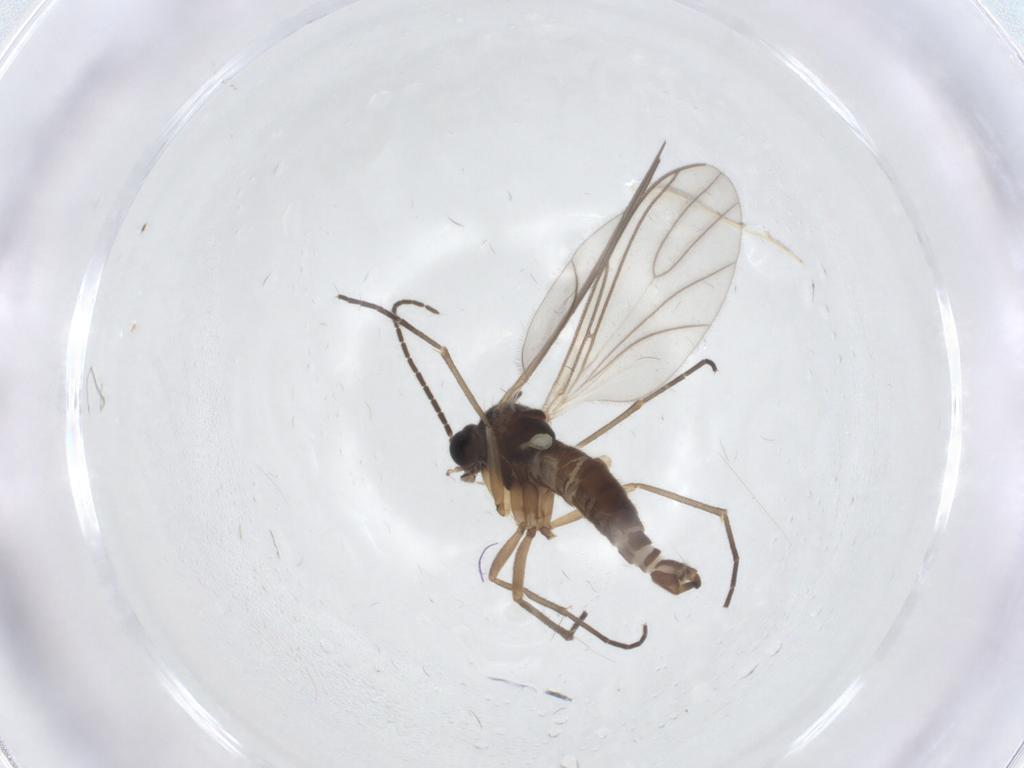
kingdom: Animalia
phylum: Arthropoda
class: Insecta
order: Diptera
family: Sciaridae
